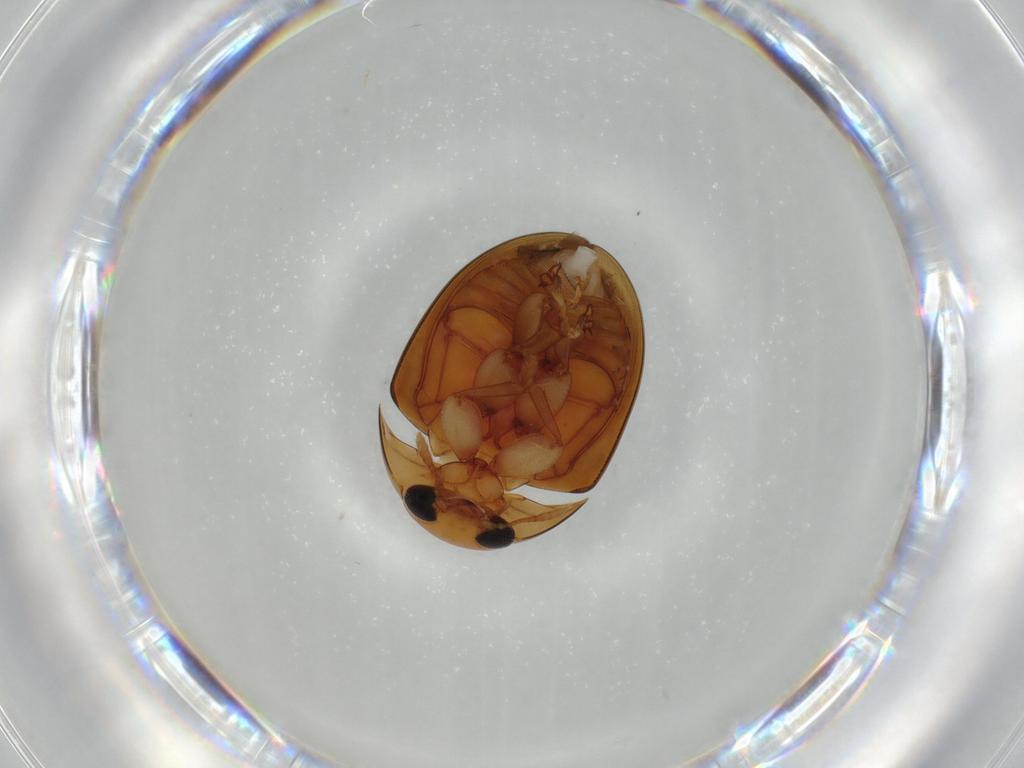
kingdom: Animalia
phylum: Arthropoda
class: Insecta
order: Coleoptera
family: Phalacridae
